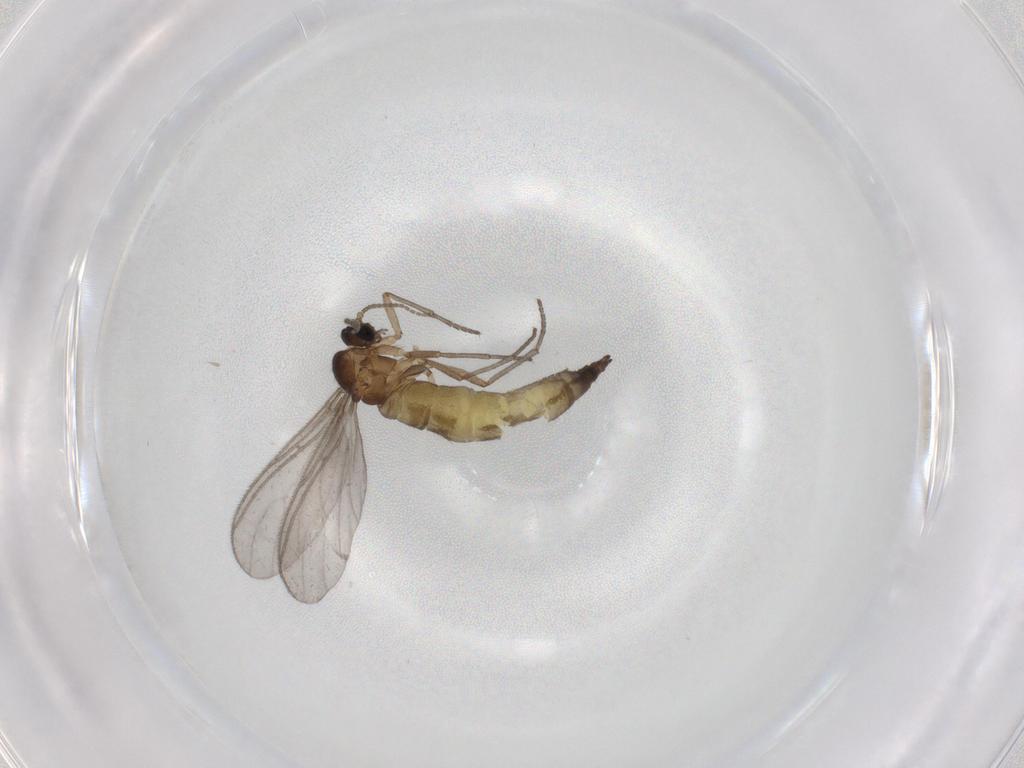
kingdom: Animalia
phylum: Arthropoda
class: Insecta
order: Diptera
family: Sciaridae
